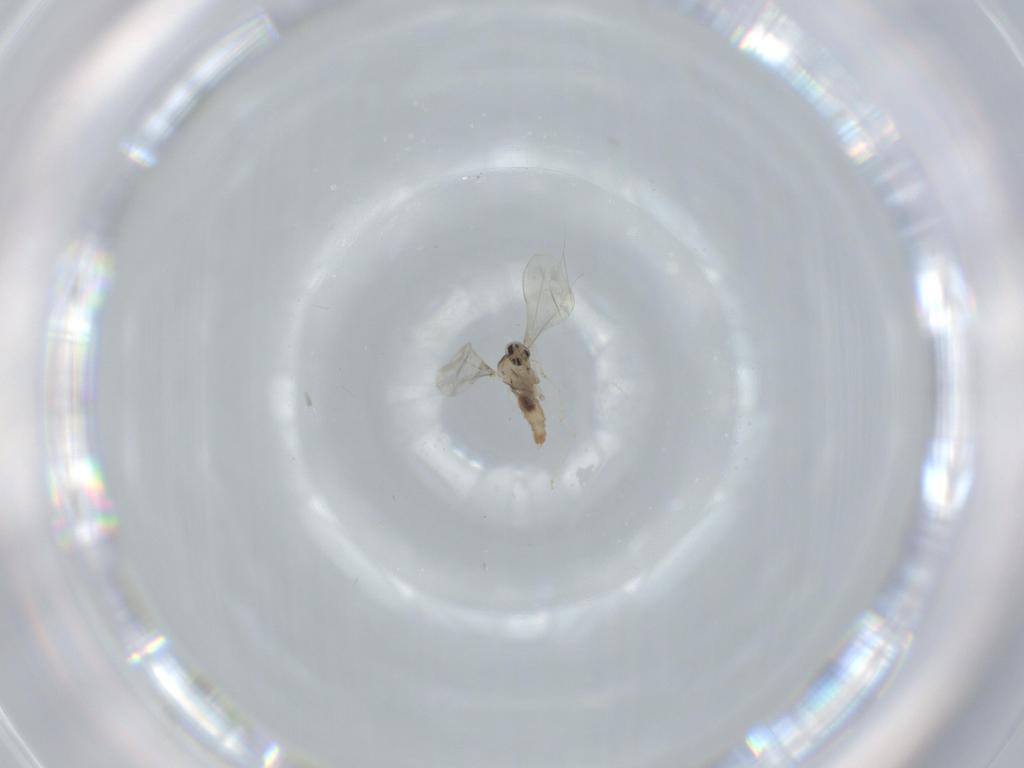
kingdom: Animalia
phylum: Arthropoda
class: Insecta
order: Diptera
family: Cecidomyiidae
